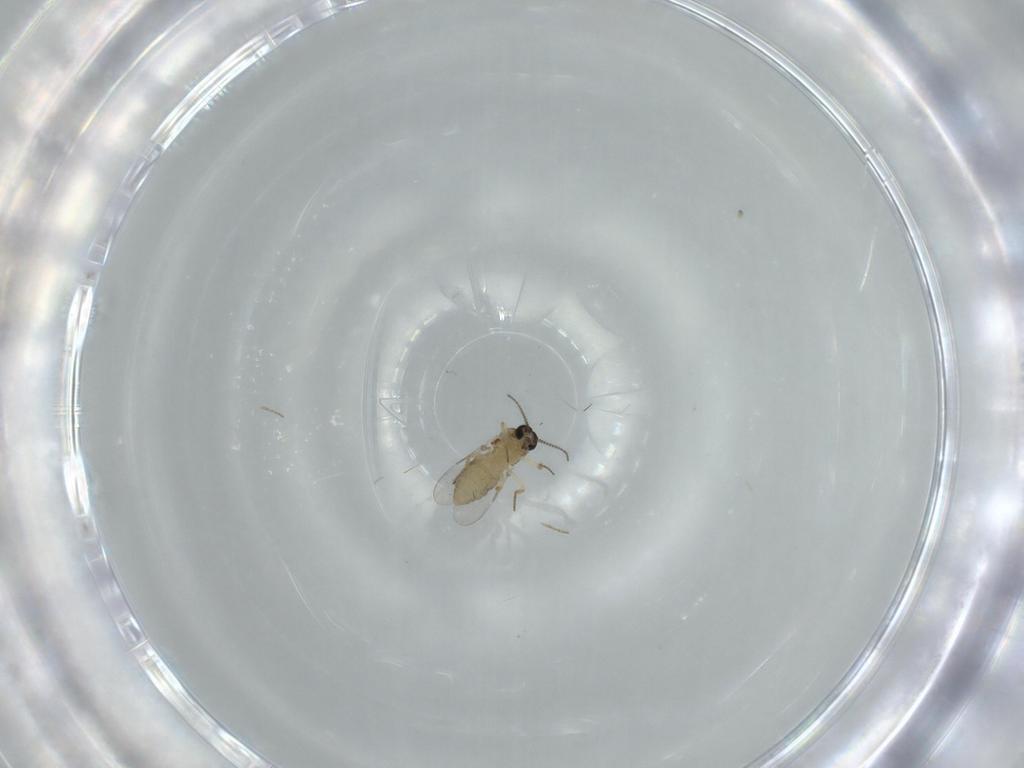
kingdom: Animalia
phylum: Arthropoda
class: Insecta
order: Diptera
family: Ceratopogonidae
